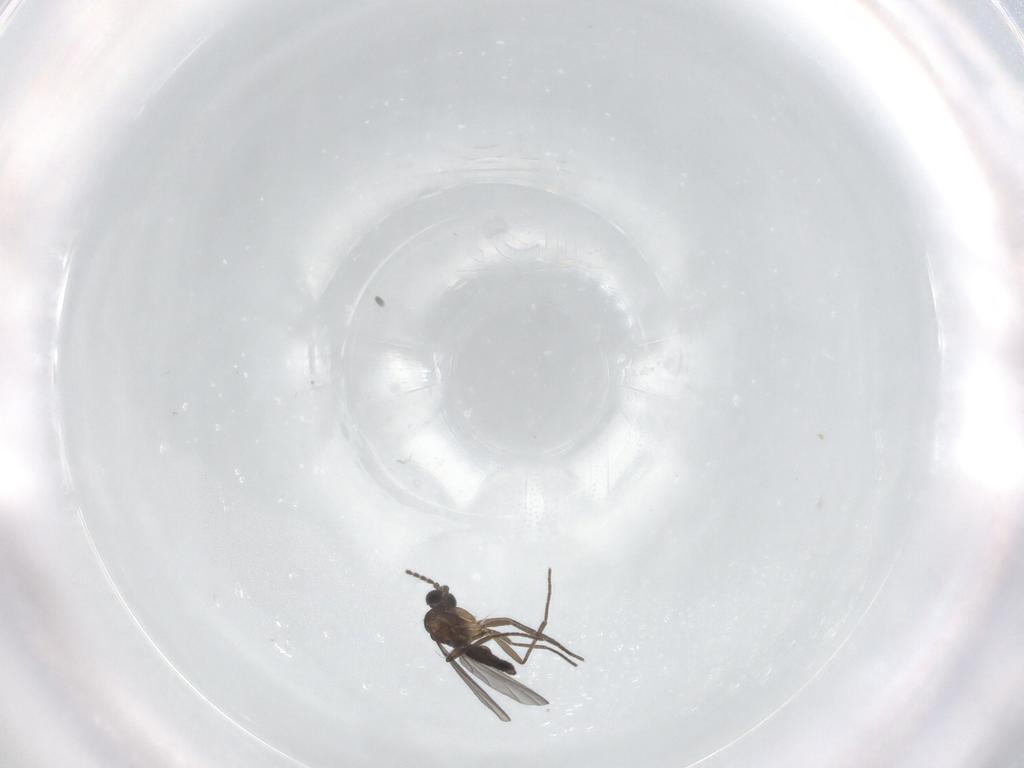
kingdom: Animalia
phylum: Arthropoda
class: Insecta
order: Diptera
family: Sciaridae
